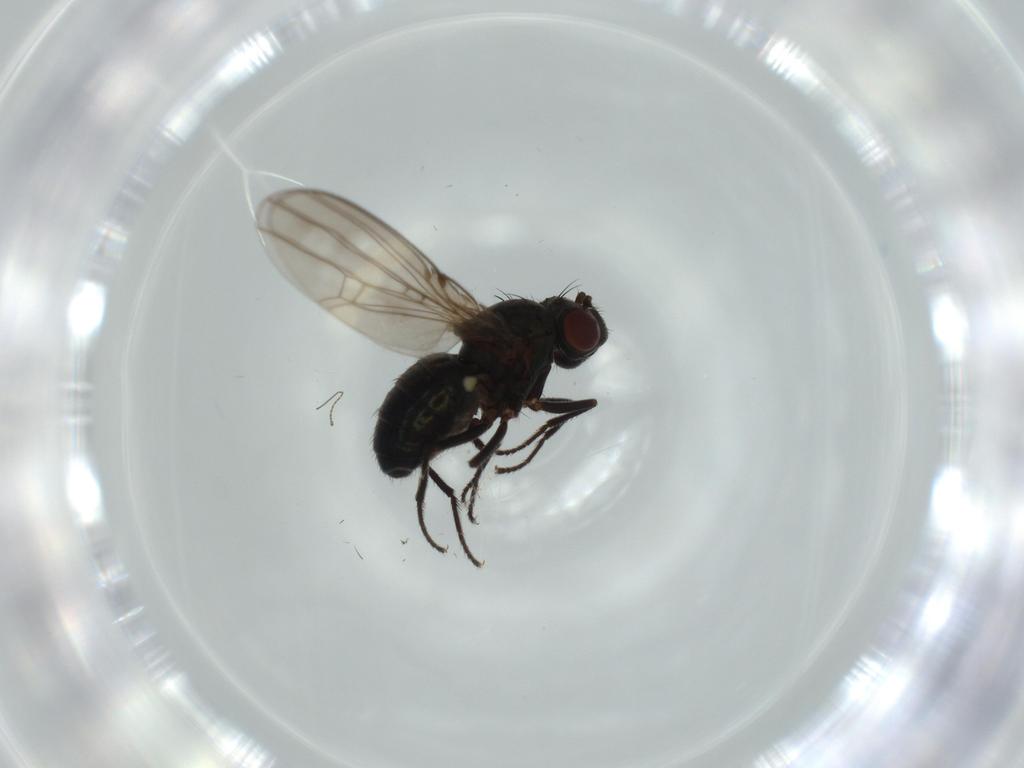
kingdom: Animalia
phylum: Arthropoda
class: Insecta
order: Diptera
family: Ephydridae
